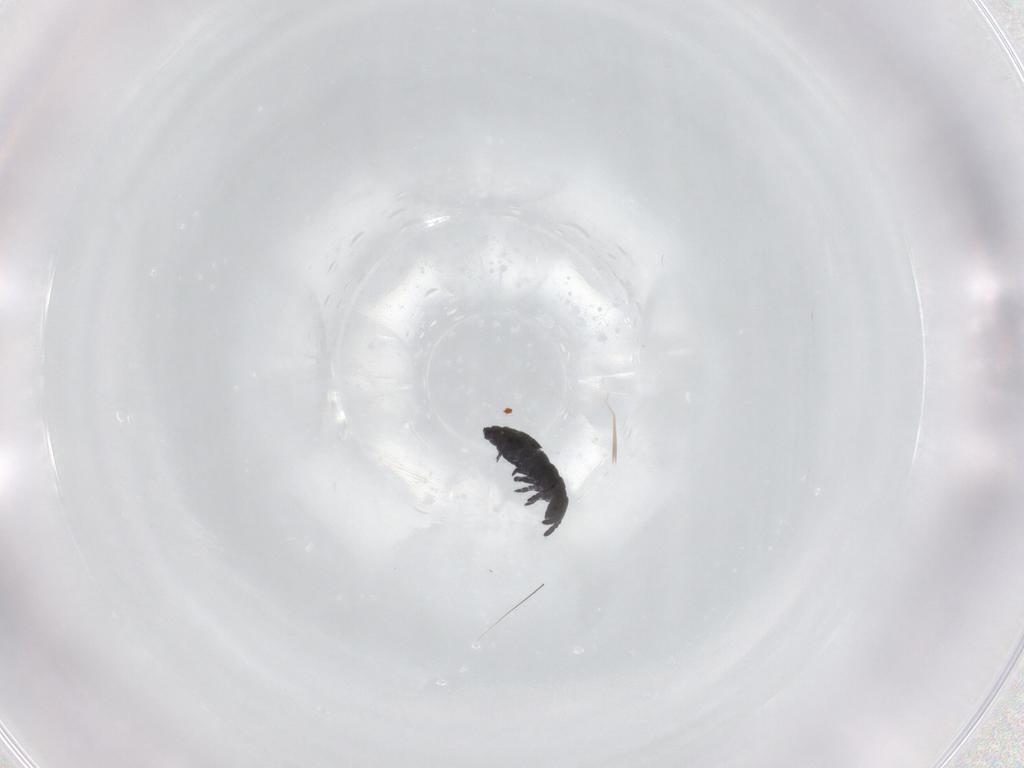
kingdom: Animalia
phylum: Arthropoda
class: Collembola
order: Poduromorpha
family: Hypogastruridae
